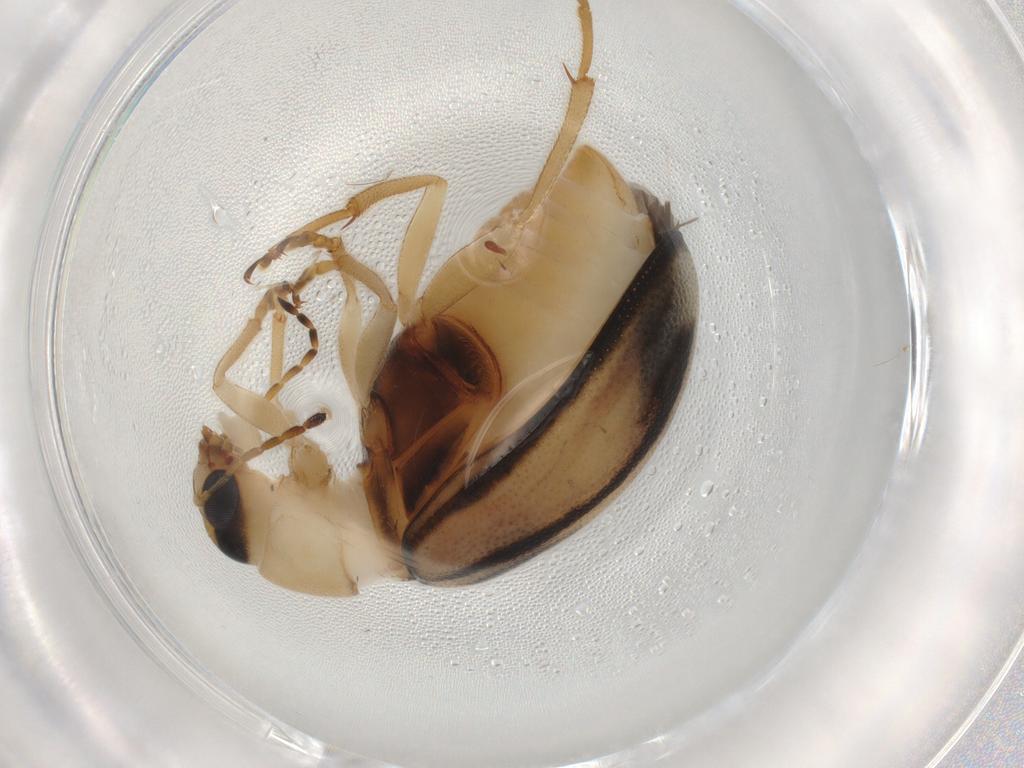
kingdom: Animalia
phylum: Arthropoda
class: Insecta
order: Coleoptera
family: Chrysomelidae
